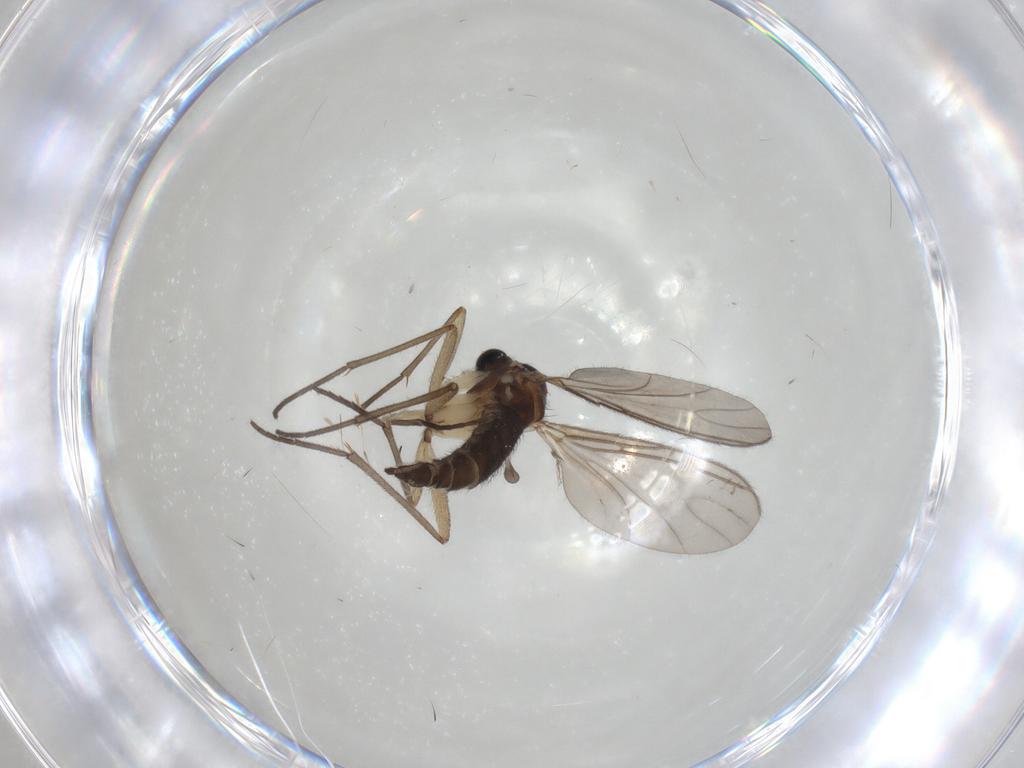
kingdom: Animalia
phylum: Arthropoda
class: Insecta
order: Diptera
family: Sciaridae
